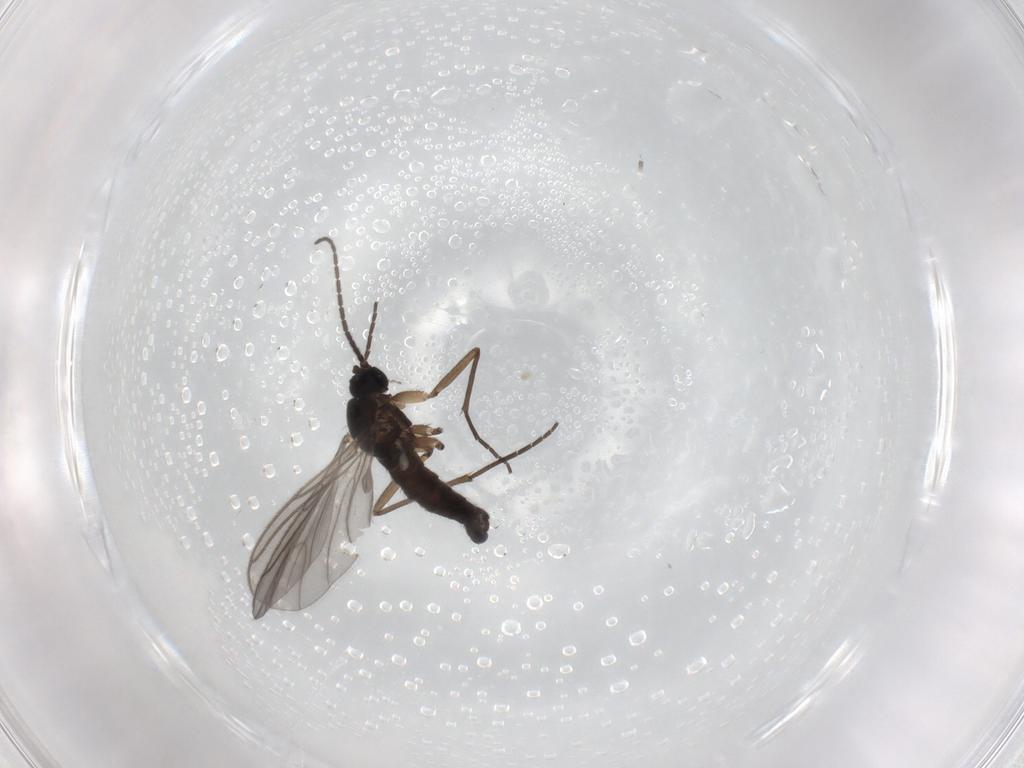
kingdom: Animalia
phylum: Arthropoda
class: Insecta
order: Diptera
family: Sciaridae
